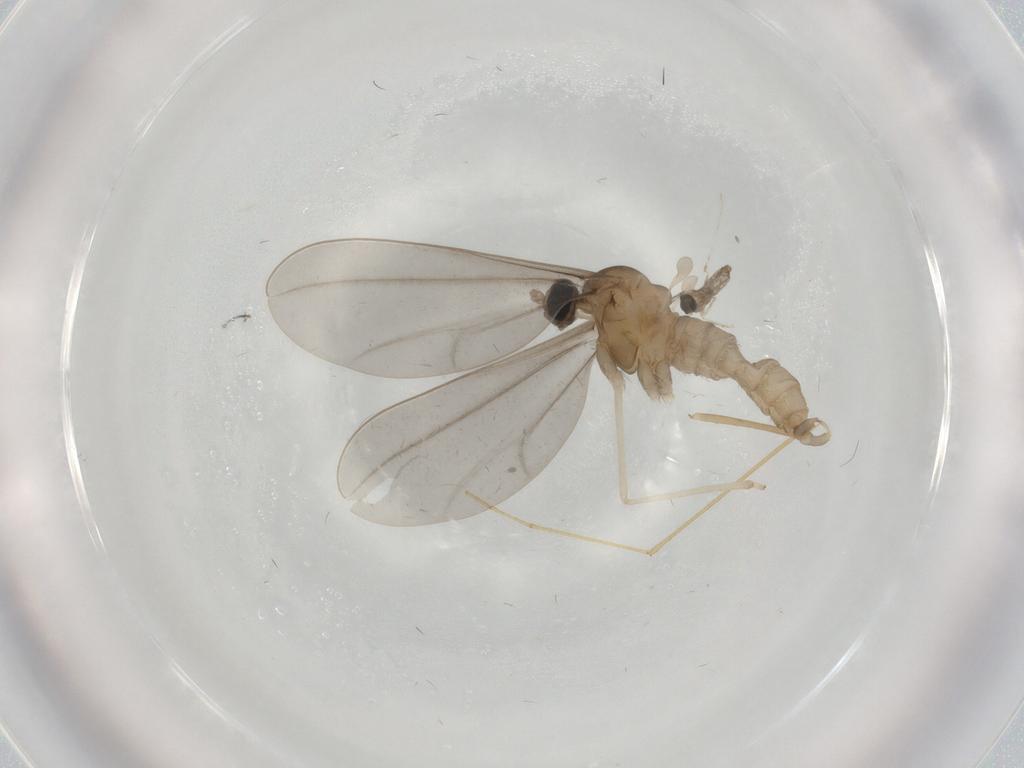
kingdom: Animalia
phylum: Arthropoda
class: Insecta
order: Diptera
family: Cecidomyiidae
